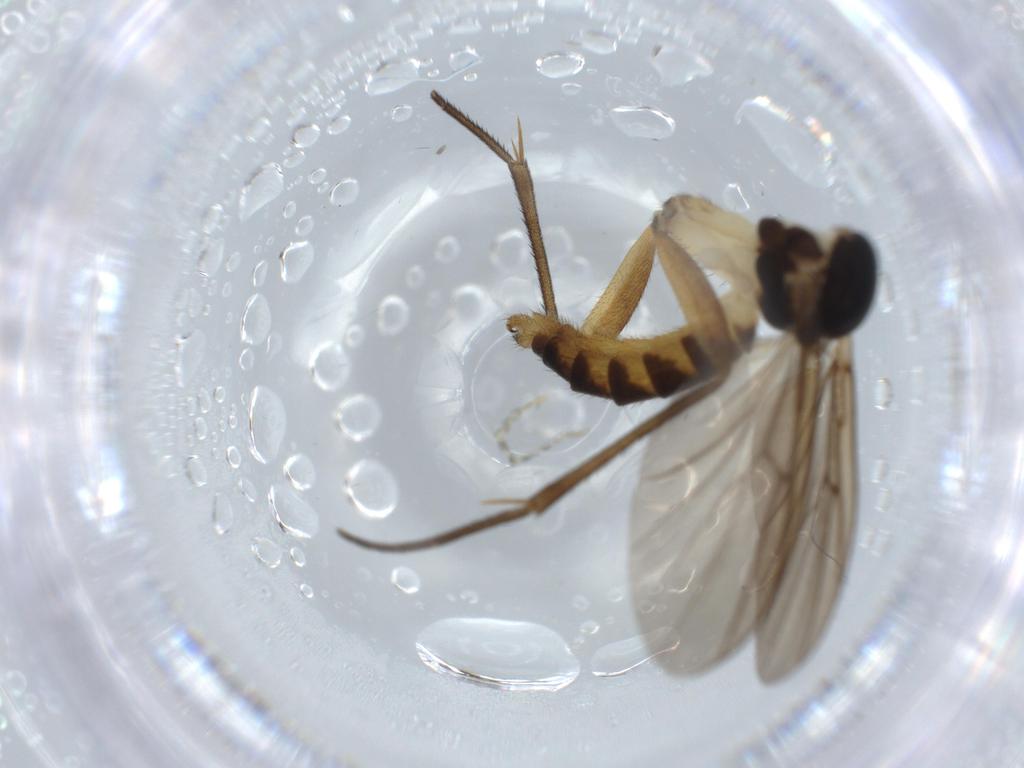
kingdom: Animalia
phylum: Arthropoda
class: Insecta
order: Diptera
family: Mycetophilidae
